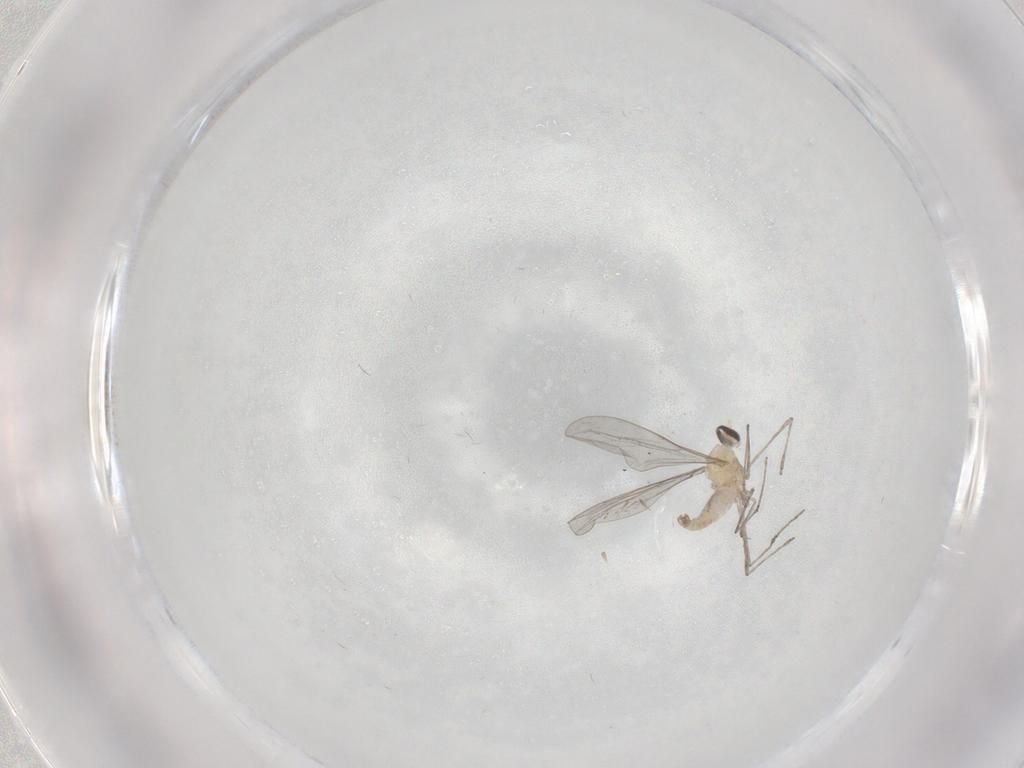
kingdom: Animalia
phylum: Arthropoda
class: Insecta
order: Diptera
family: Cecidomyiidae
